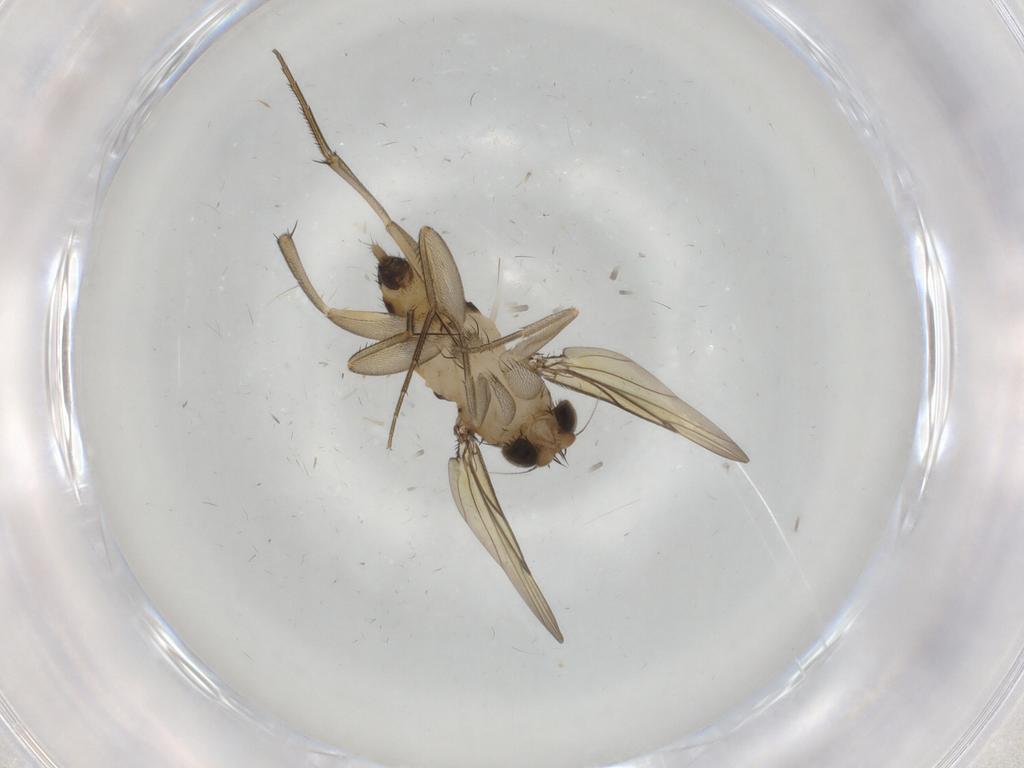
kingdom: Animalia
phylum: Arthropoda
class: Insecta
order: Diptera
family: Phoridae
